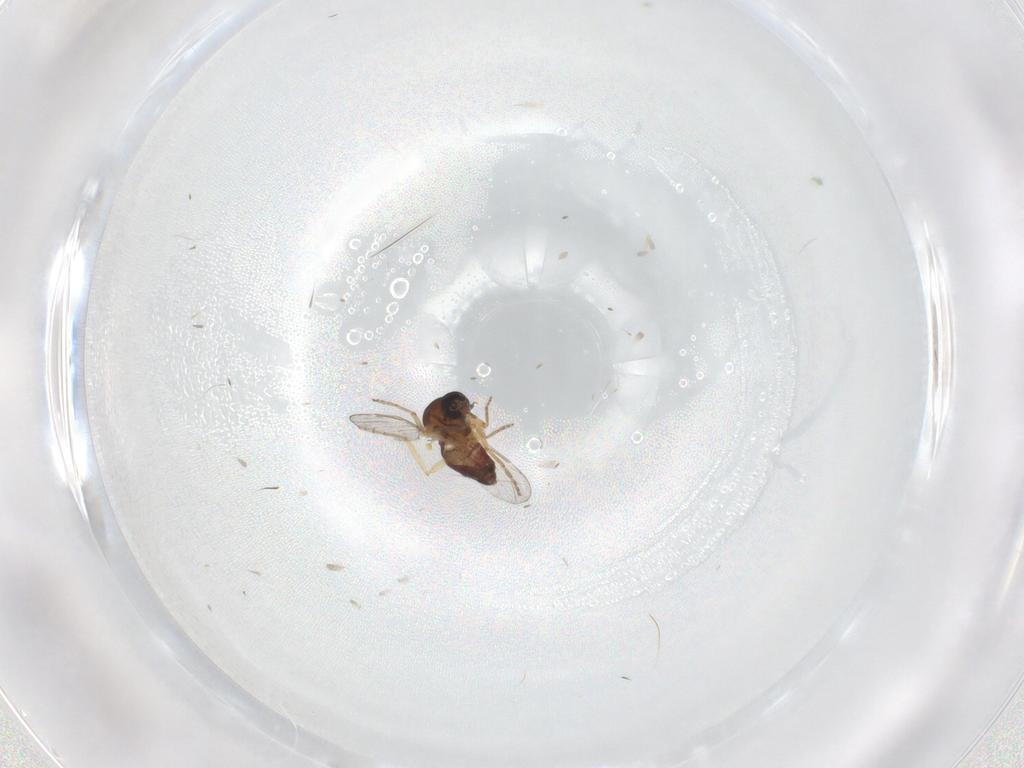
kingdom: Animalia
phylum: Arthropoda
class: Insecta
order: Diptera
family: Ceratopogonidae
